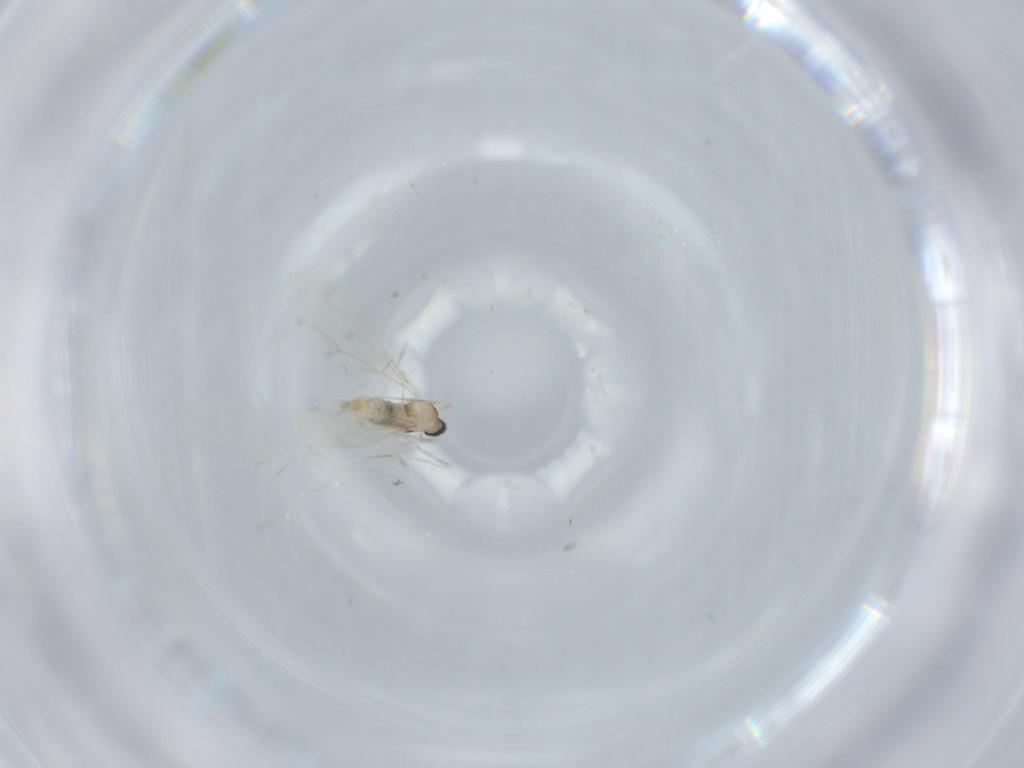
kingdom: Animalia
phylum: Arthropoda
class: Insecta
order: Diptera
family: Cecidomyiidae
